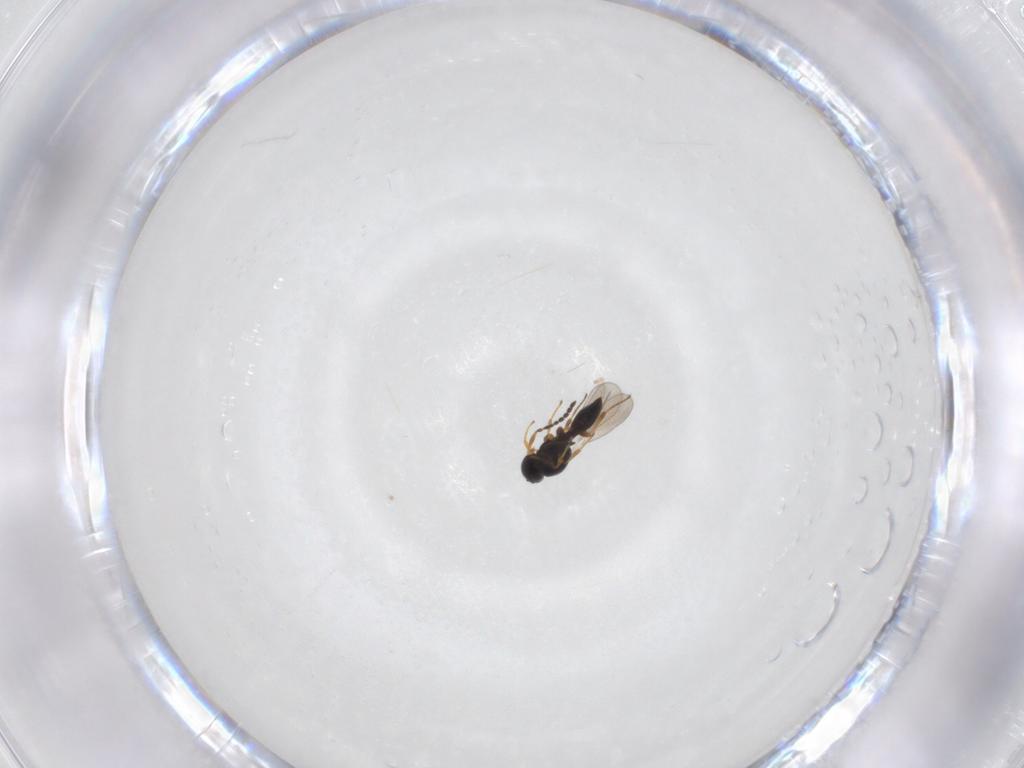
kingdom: Animalia
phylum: Arthropoda
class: Insecta
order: Hymenoptera
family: Platygastridae
